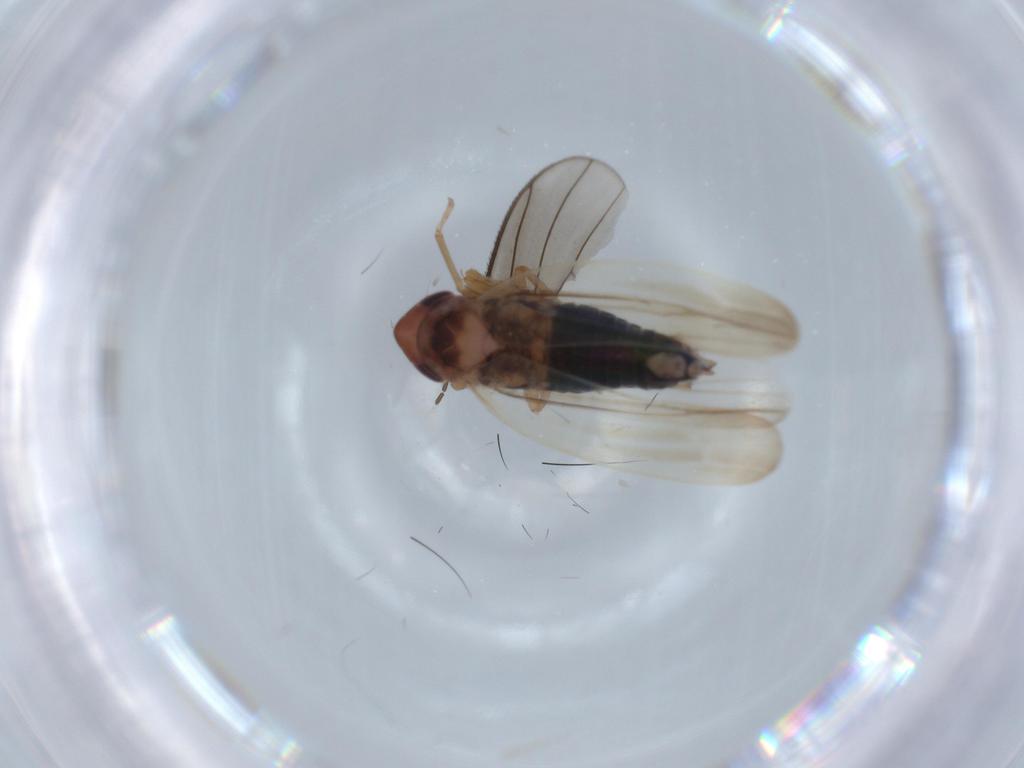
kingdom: Animalia
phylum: Arthropoda
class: Insecta
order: Hemiptera
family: Cicadellidae
